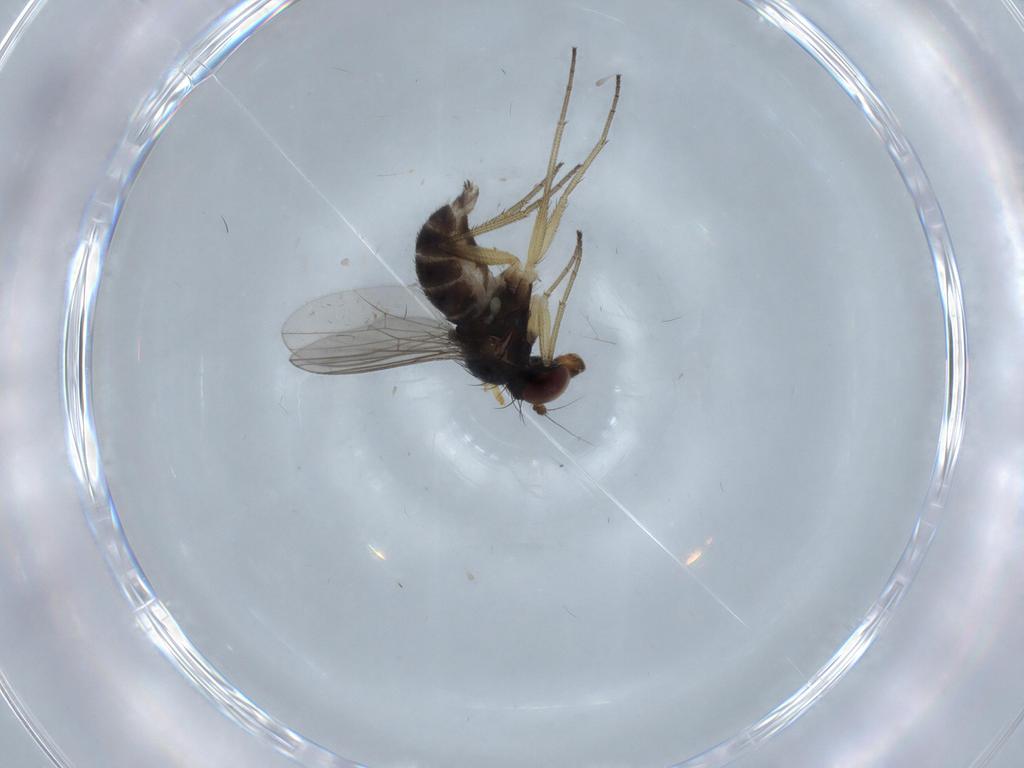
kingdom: Animalia
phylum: Arthropoda
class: Insecta
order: Diptera
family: Dolichopodidae
